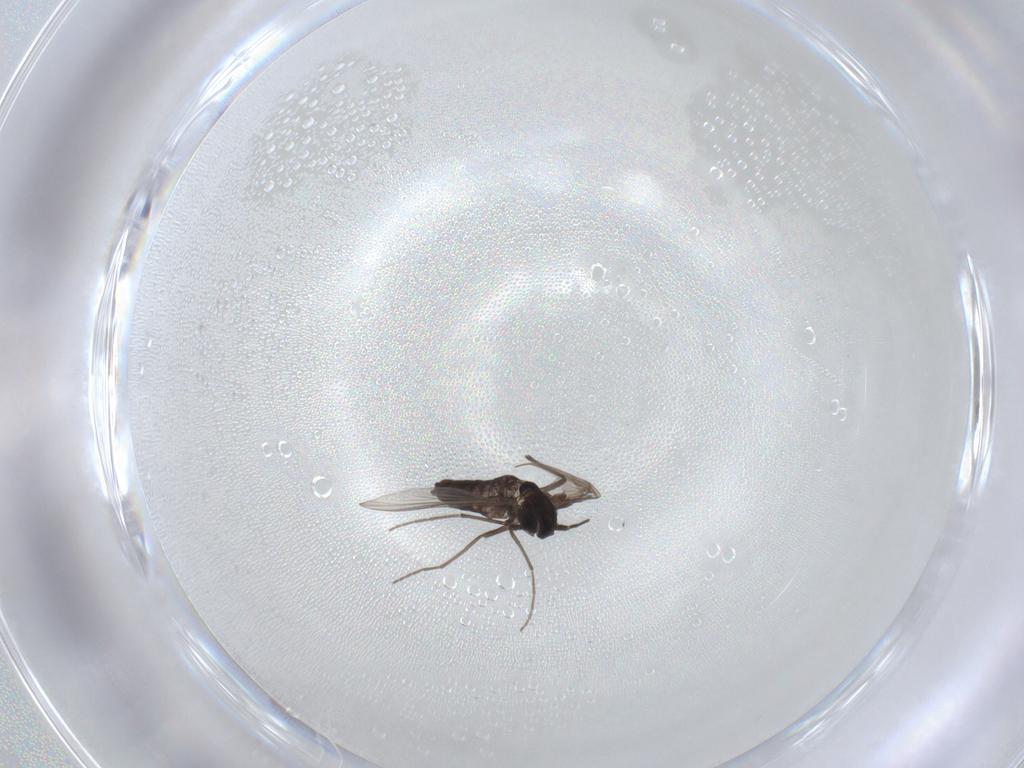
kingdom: Animalia
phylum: Arthropoda
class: Insecta
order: Diptera
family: Chironomidae
